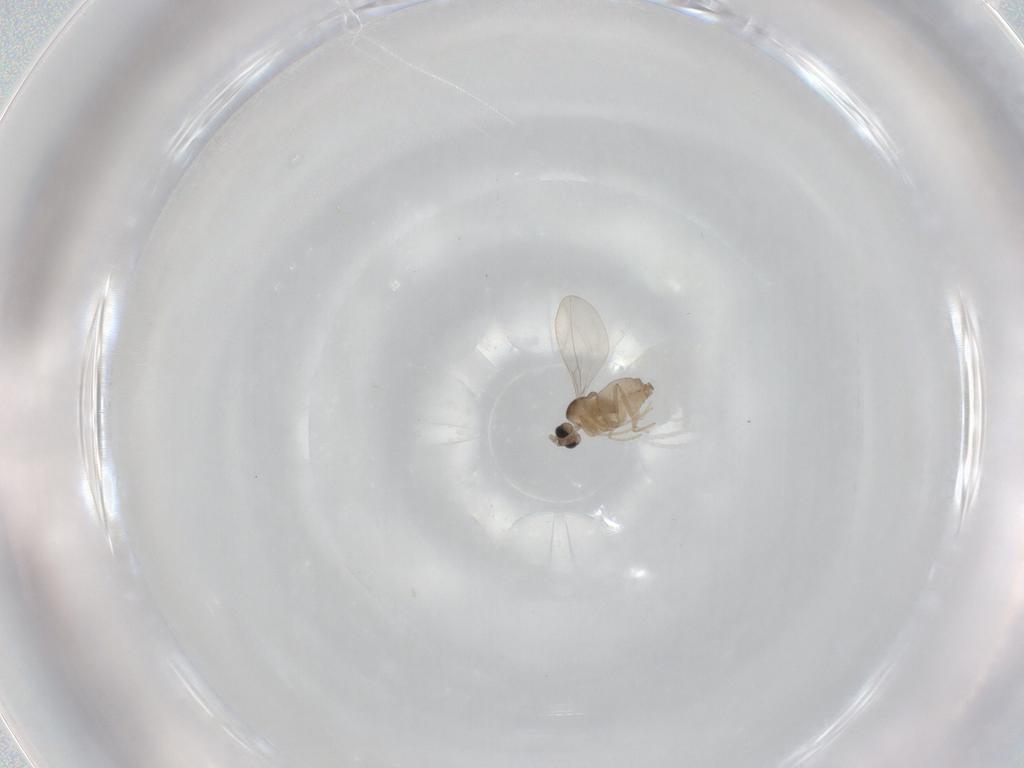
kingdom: Animalia
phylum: Arthropoda
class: Insecta
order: Diptera
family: Cecidomyiidae
